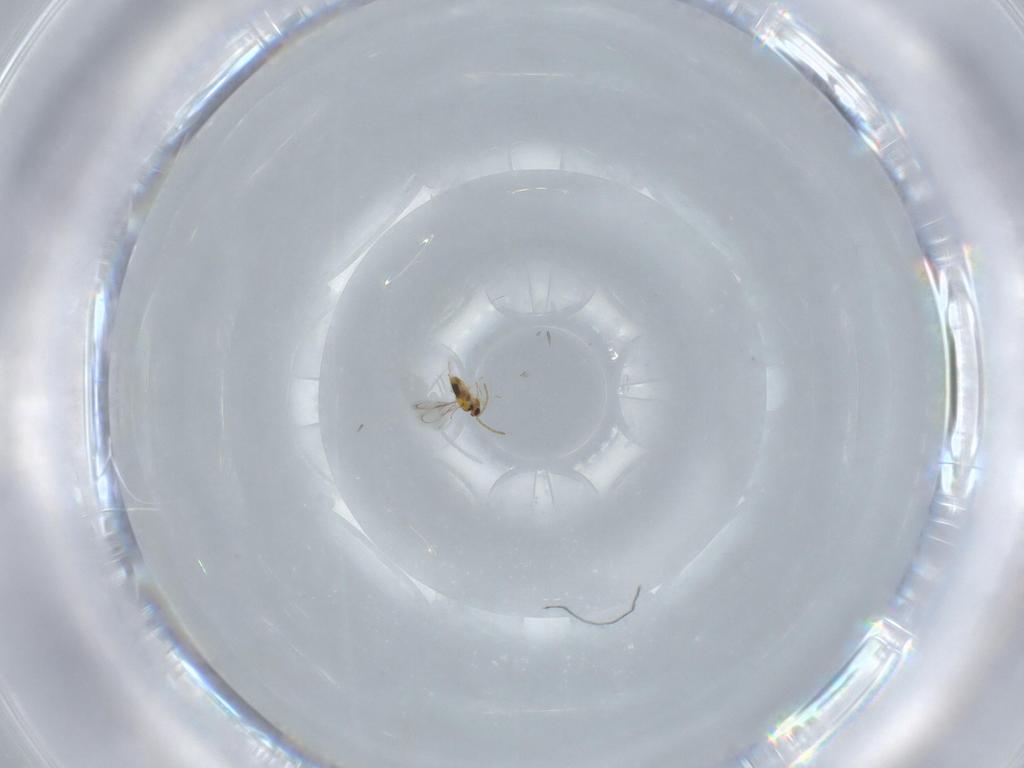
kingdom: Animalia
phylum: Arthropoda
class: Insecta
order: Hymenoptera
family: Aphelinidae
